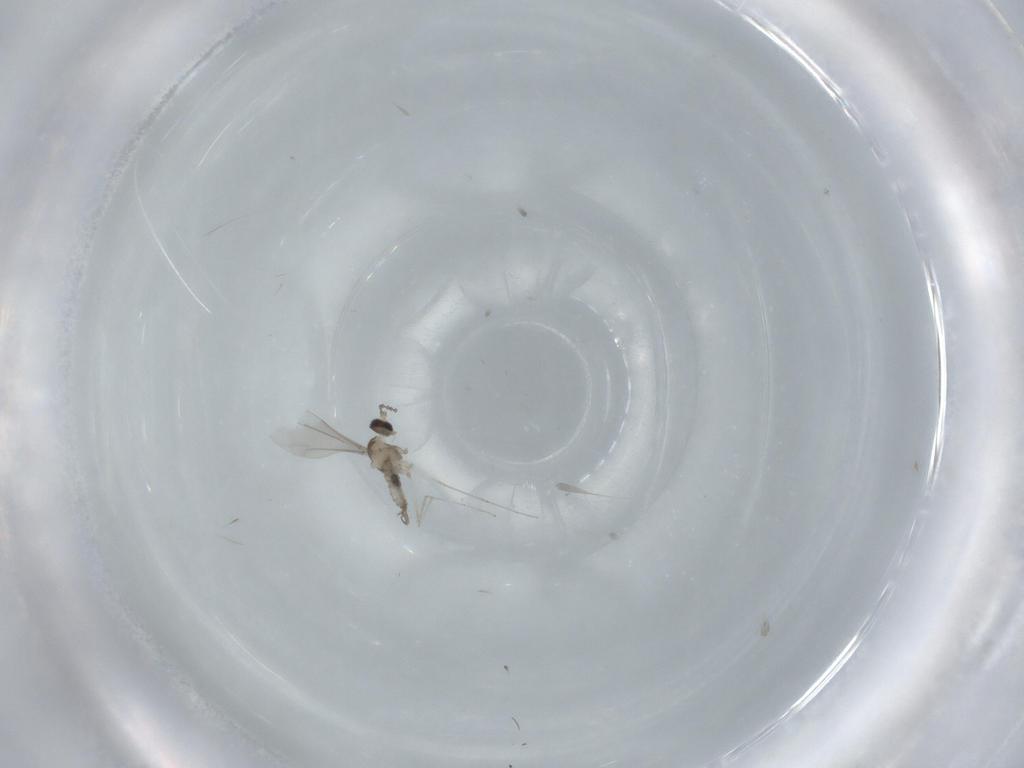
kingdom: Animalia
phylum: Arthropoda
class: Insecta
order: Diptera
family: Cecidomyiidae
